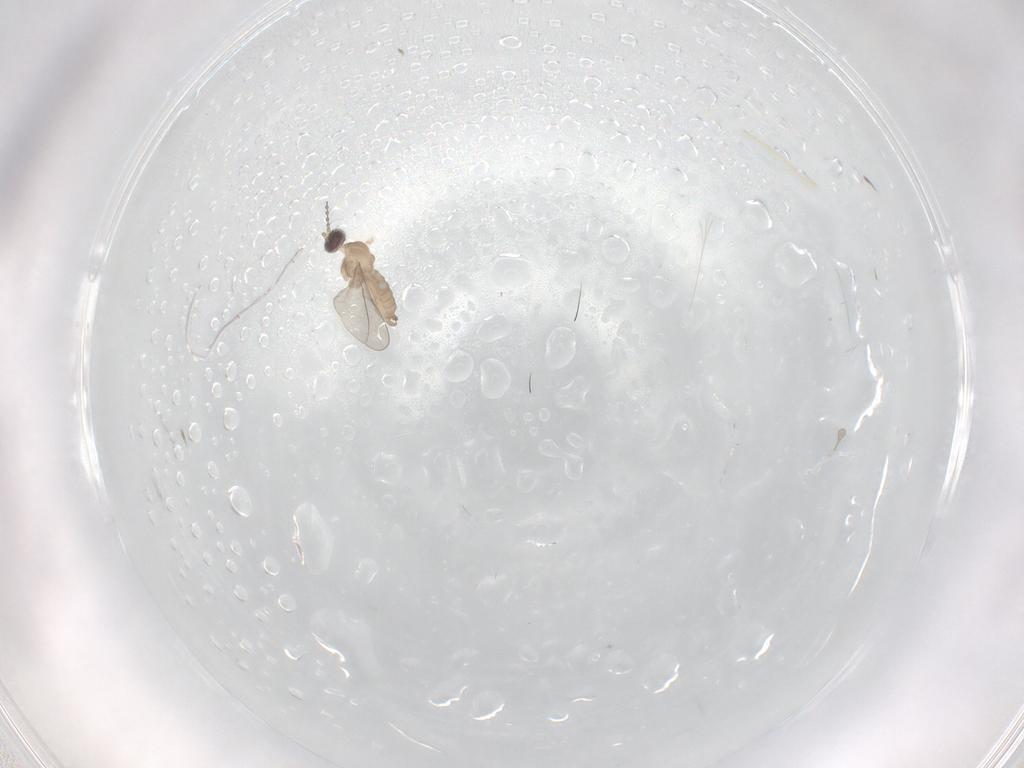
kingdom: Animalia
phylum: Arthropoda
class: Insecta
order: Diptera
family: Cecidomyiidae
